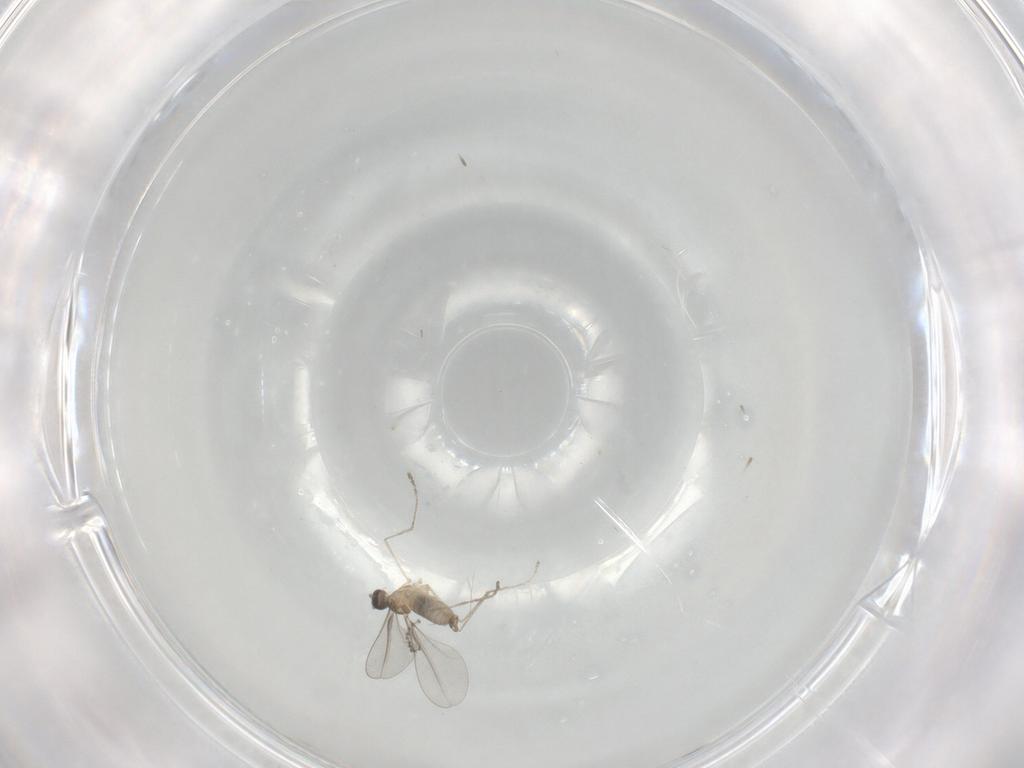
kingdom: Animalia
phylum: Arthropoda
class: Insecta
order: Diptera
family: Cecidomyiidae
